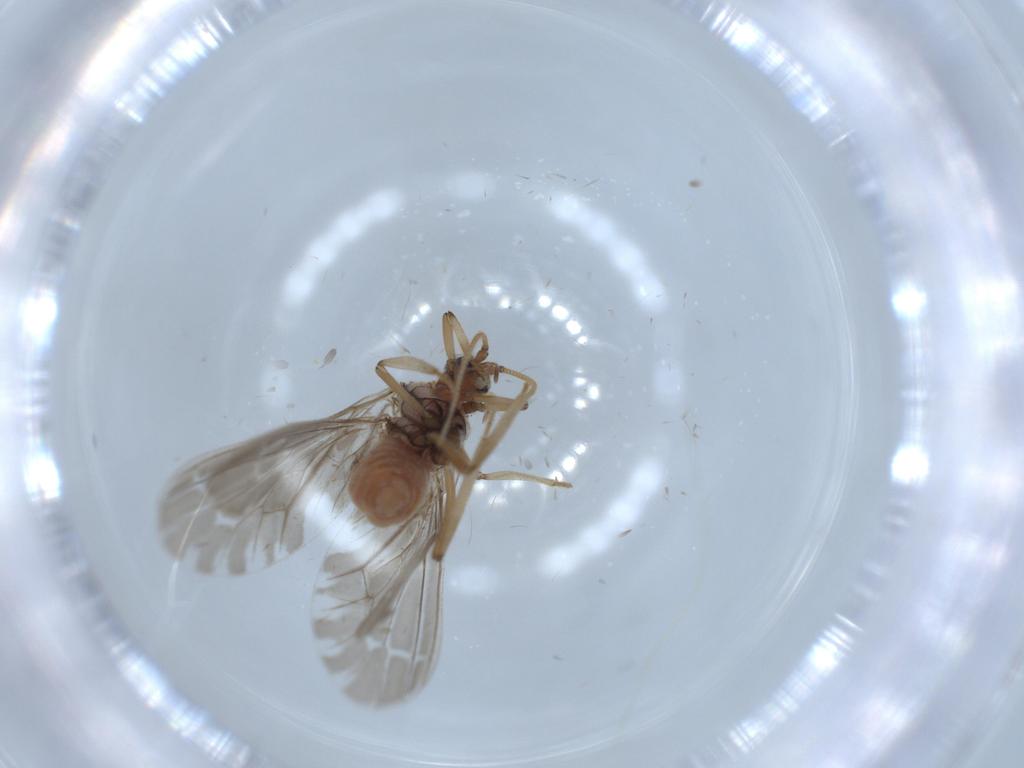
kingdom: Animalia
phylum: Arthropoda
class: Insecta
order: Neuroptera
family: Coniopterygidae
